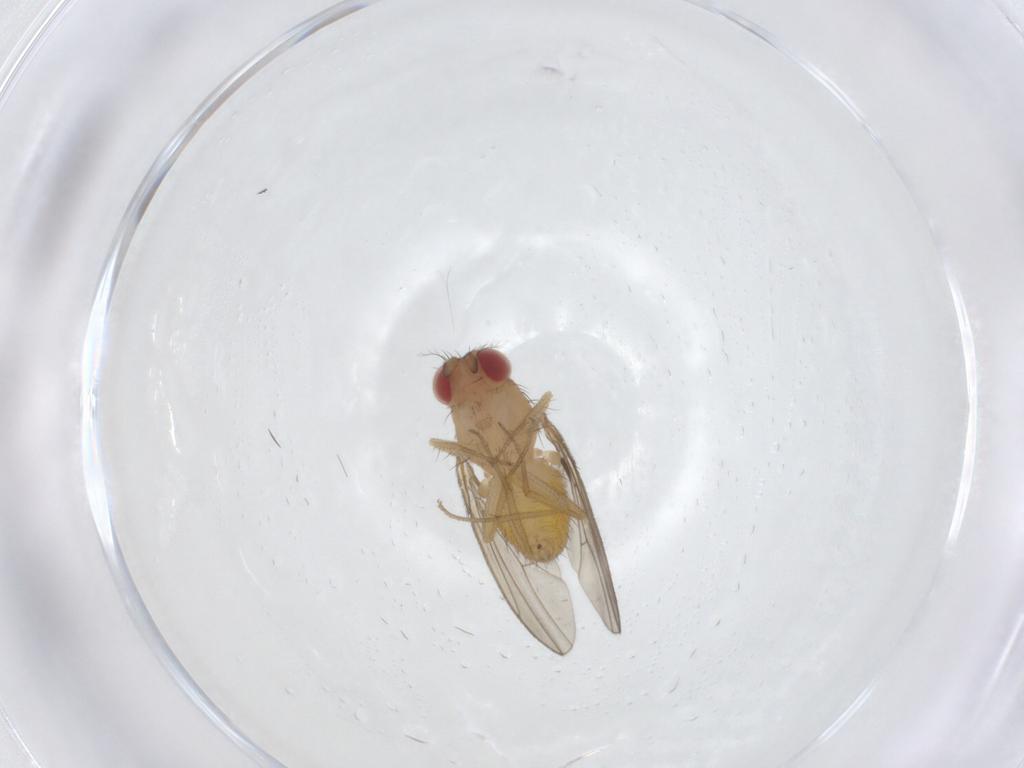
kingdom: Animalia
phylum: Arthropoda
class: Insecta
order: Diptera
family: Drosophilidae
